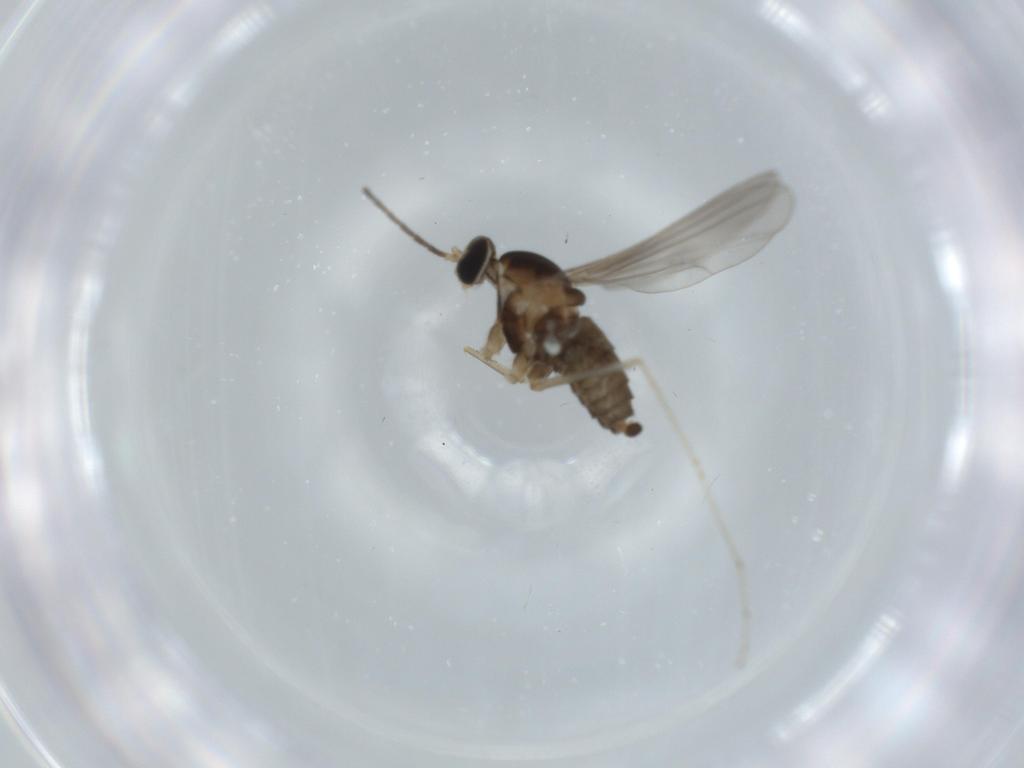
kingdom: Animalia
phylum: Arthropoda
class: Insecta
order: Diptera
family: Cecidomyiidae
